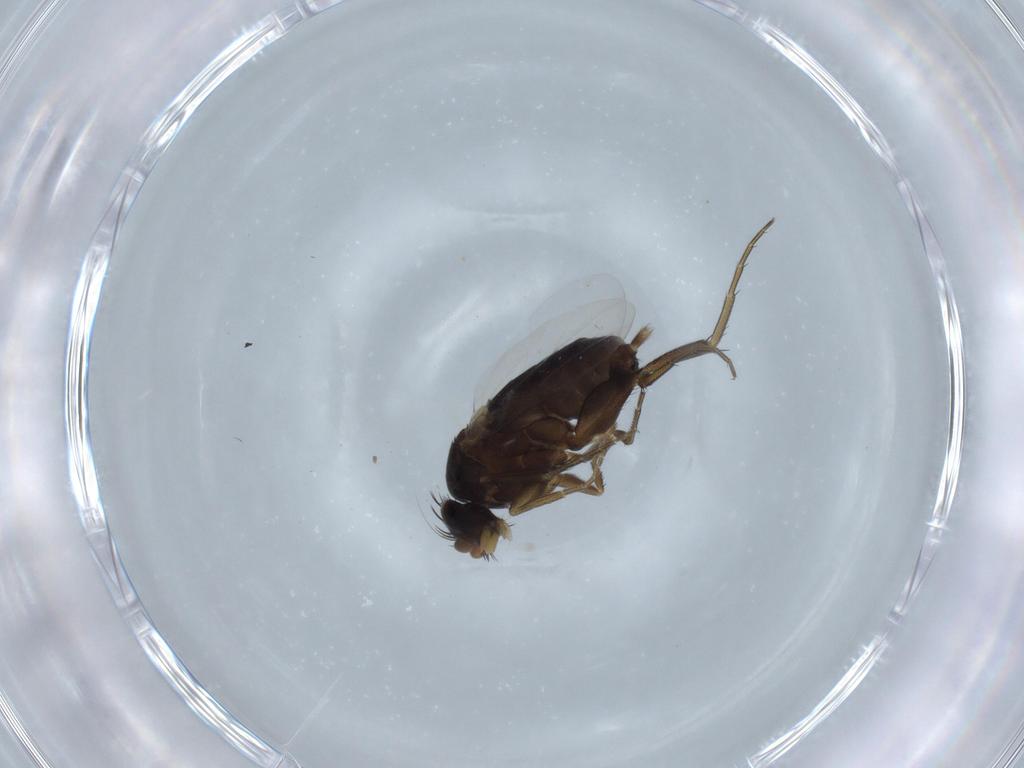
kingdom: Animalia
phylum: Arthropoda
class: Insecta
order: Diptera
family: Phoridae
